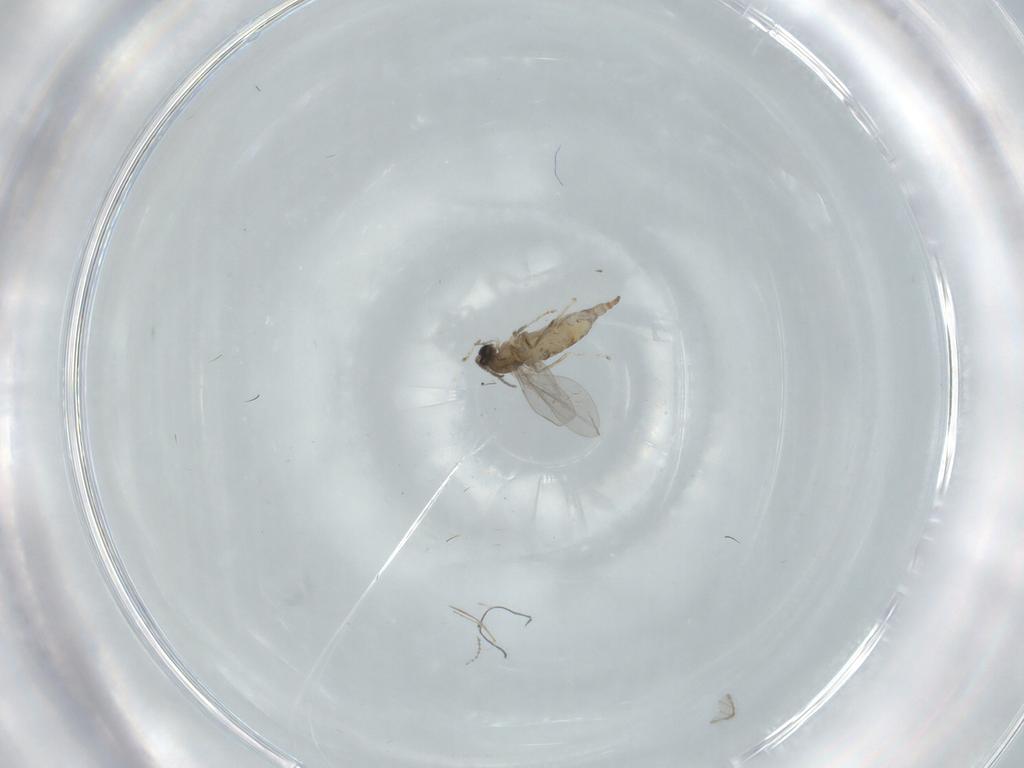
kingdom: Animalia
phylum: Arthropoda
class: Insecta
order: Diptera
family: Cecidomyiidae
